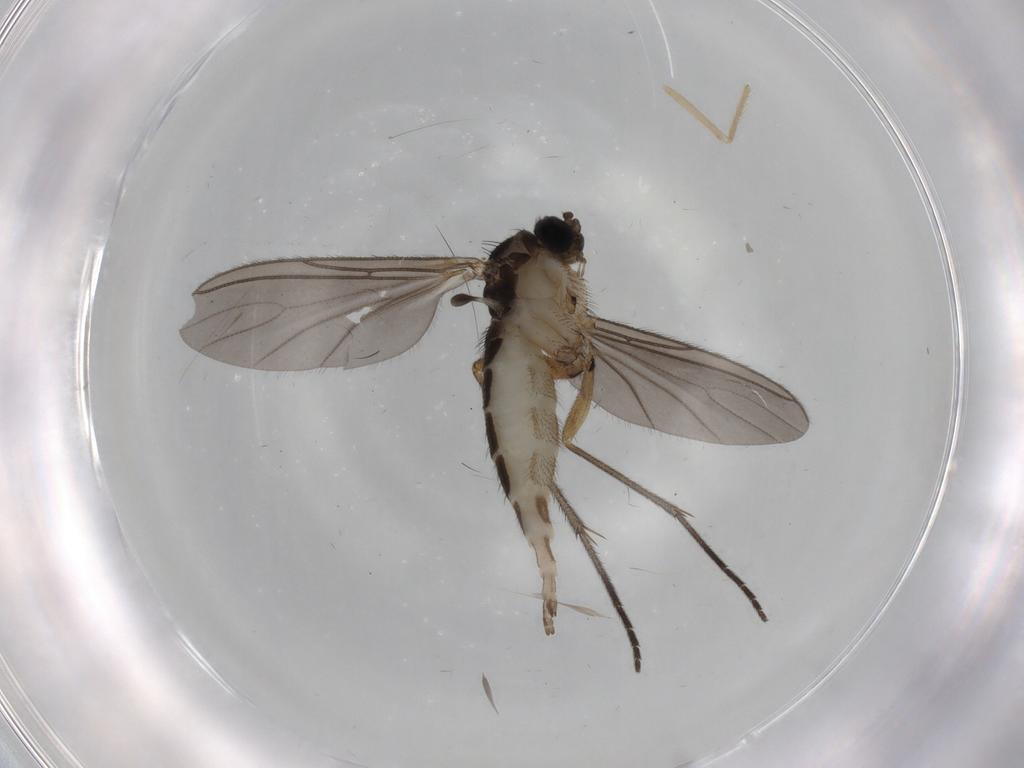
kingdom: Animalia
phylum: Arthropoda
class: Insecta
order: Diptera
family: Sciaridae
